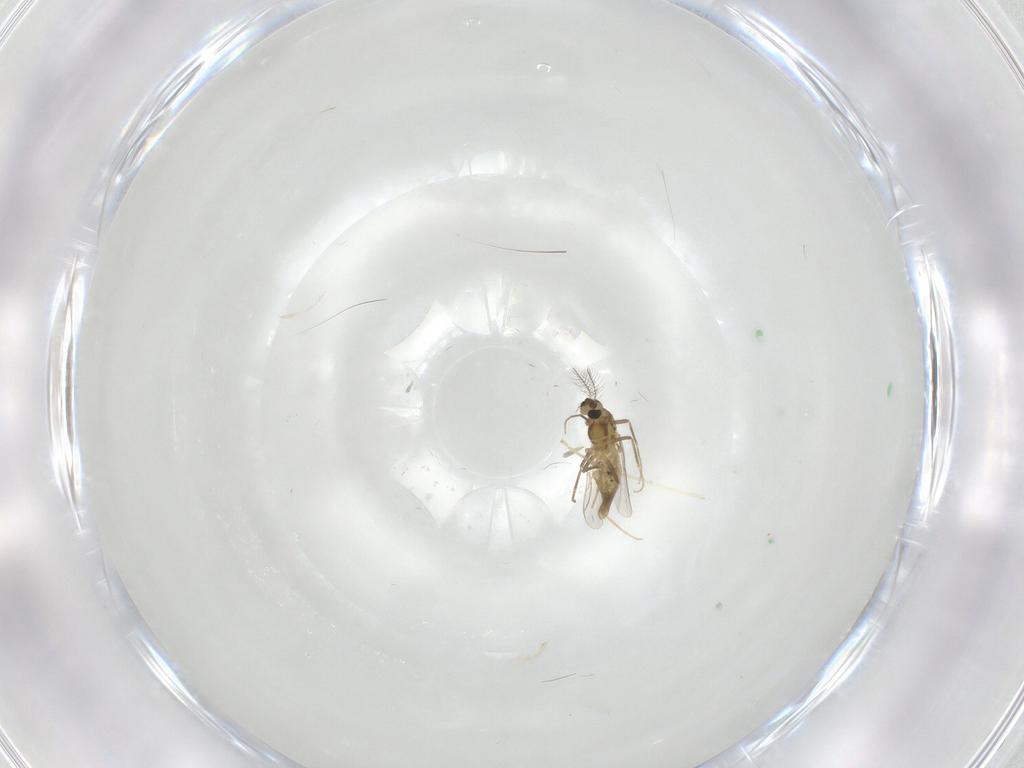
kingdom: Animalia
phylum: Arthropoda
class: Insecta
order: Diptera
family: Chironomidae
